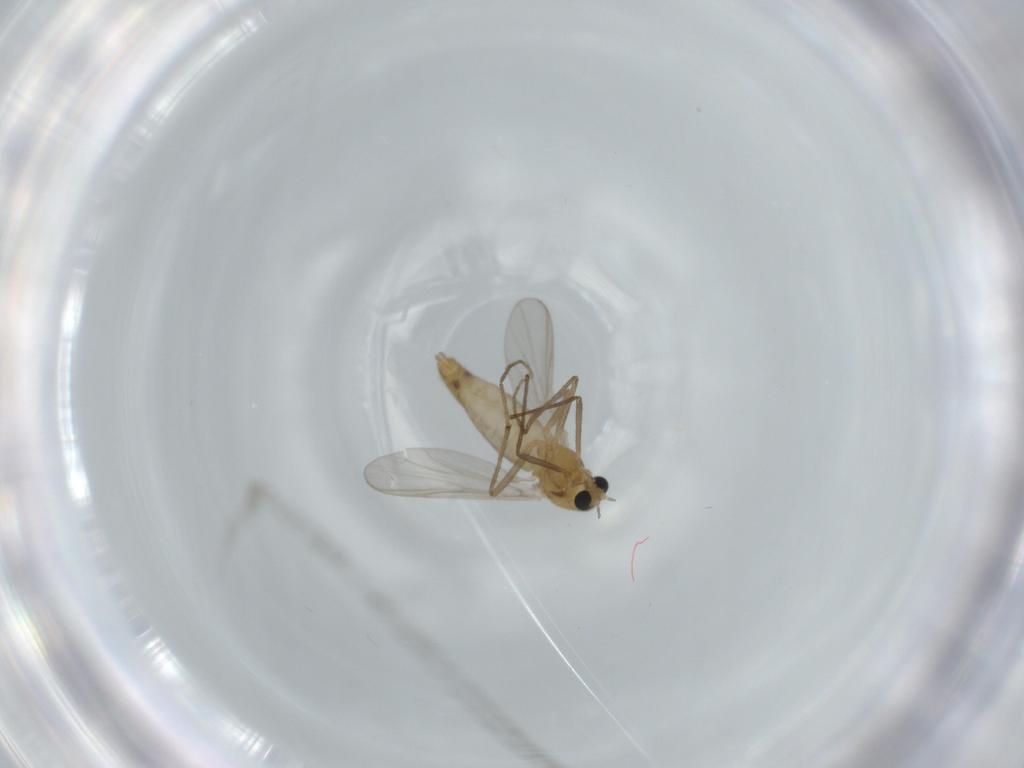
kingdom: Animalia
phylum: Arthropoda
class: Insecta
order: Diptera
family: Chironomidae
